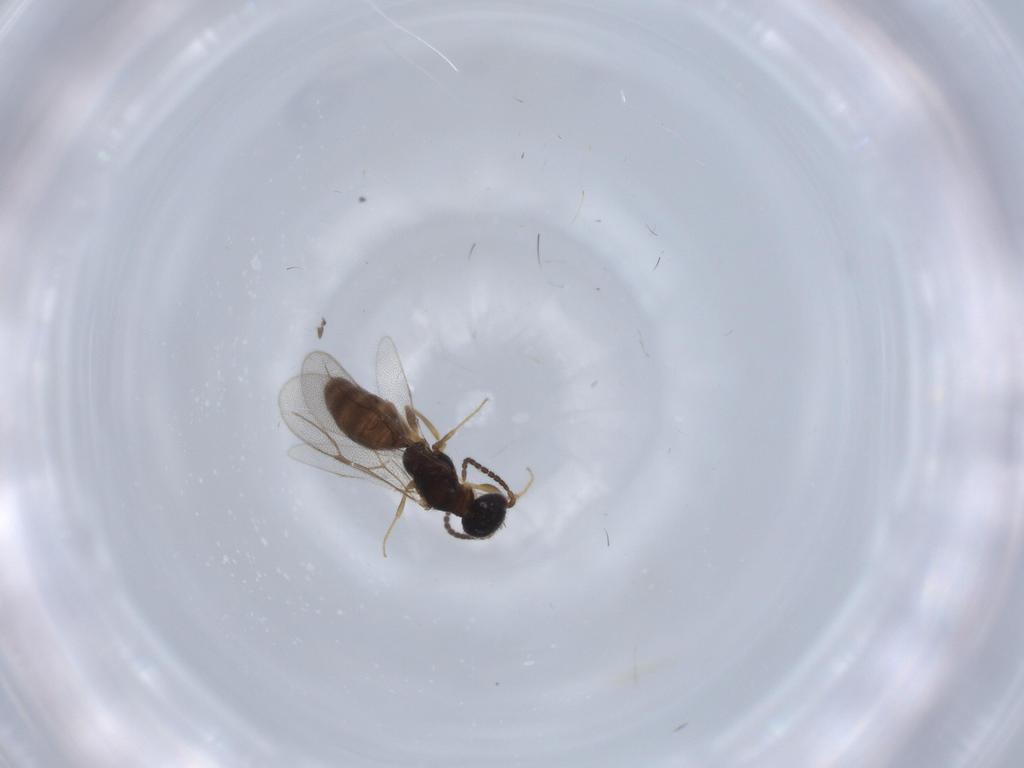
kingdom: Animalia
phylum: Arthropoda
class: Insecta
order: Hymenoptera
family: Bethylidae
